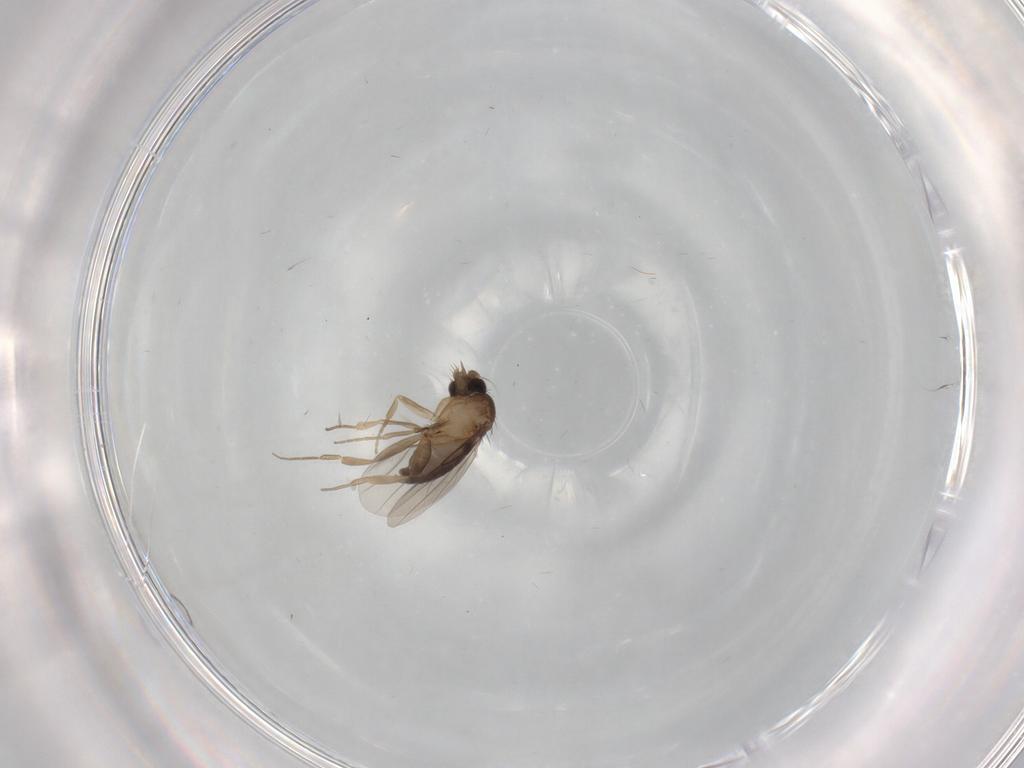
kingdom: Animalia
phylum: Arthropoda
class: Insecta
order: Diptera
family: Phoridae
